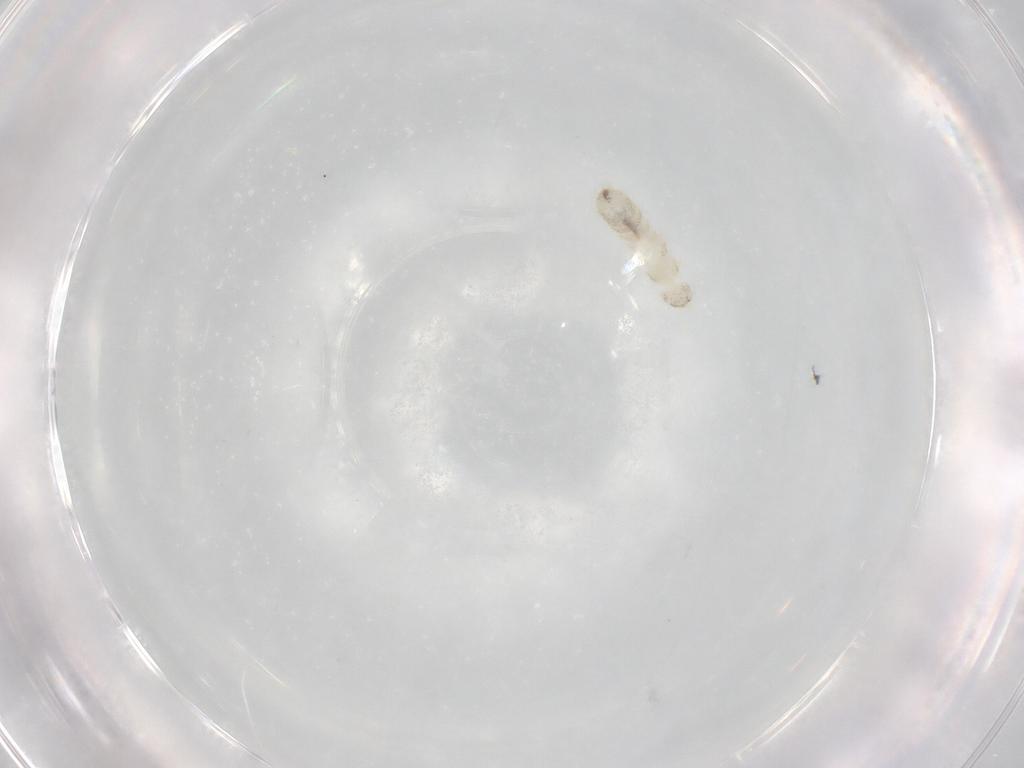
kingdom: Animalia
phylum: Arthropoda
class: Collembola
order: Entomobryomorpha
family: Isotomidae
